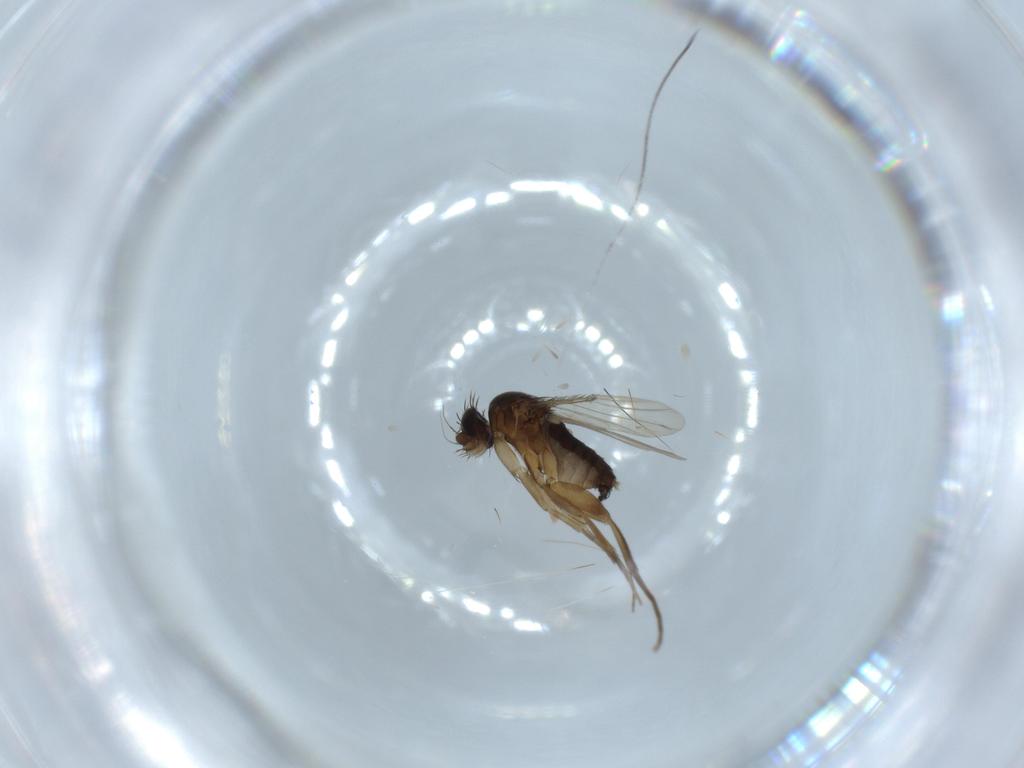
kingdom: Animalia
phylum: Arthropoda
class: Insecta
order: Diptera
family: Phoridae
